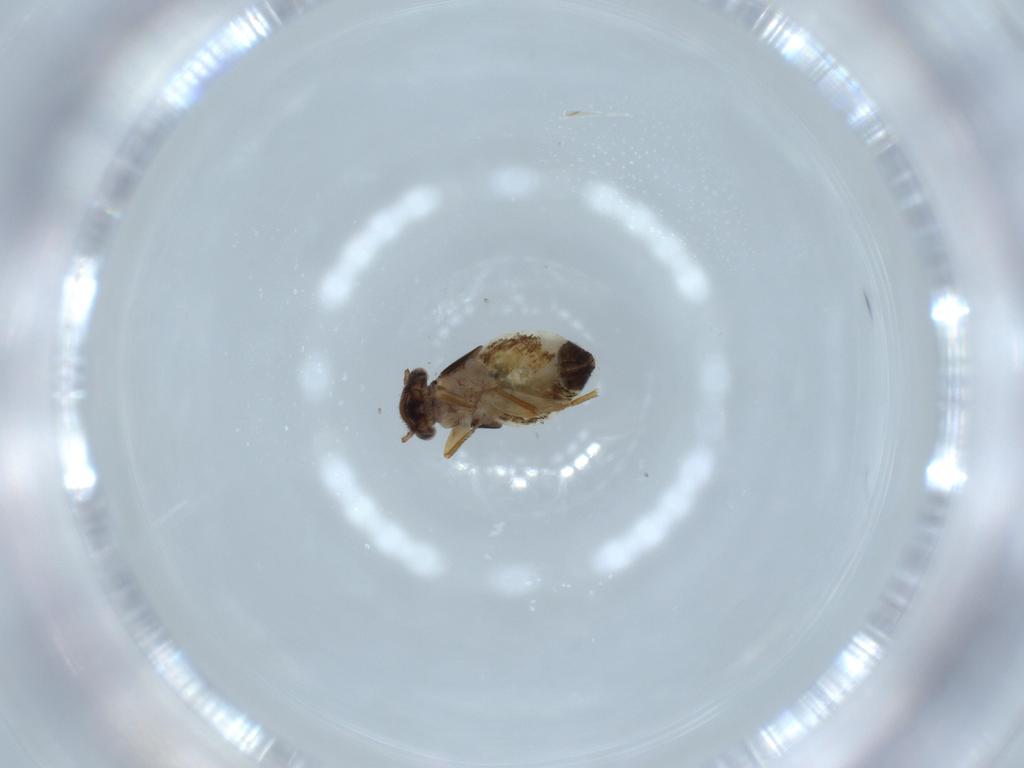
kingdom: Animalia
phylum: Arthropoda
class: Insecta
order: Psocodea
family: Lepidopsocidae
